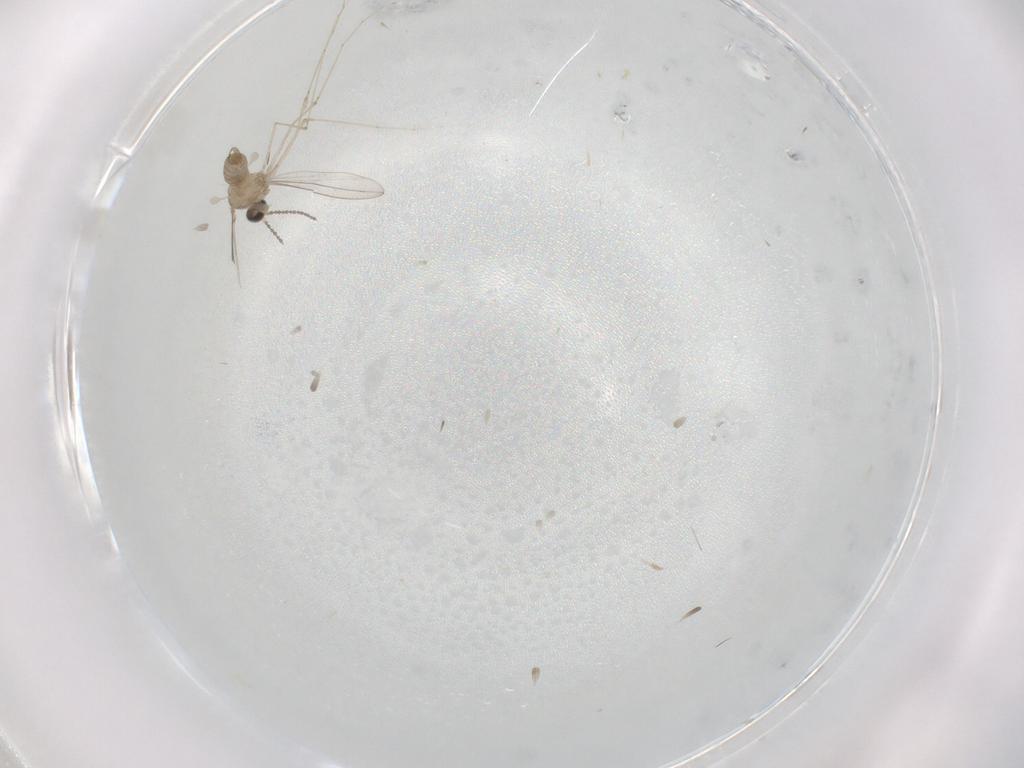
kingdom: Animalia
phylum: Arthropoda
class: Insecta
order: Diptera
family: Cecidomyiidae
